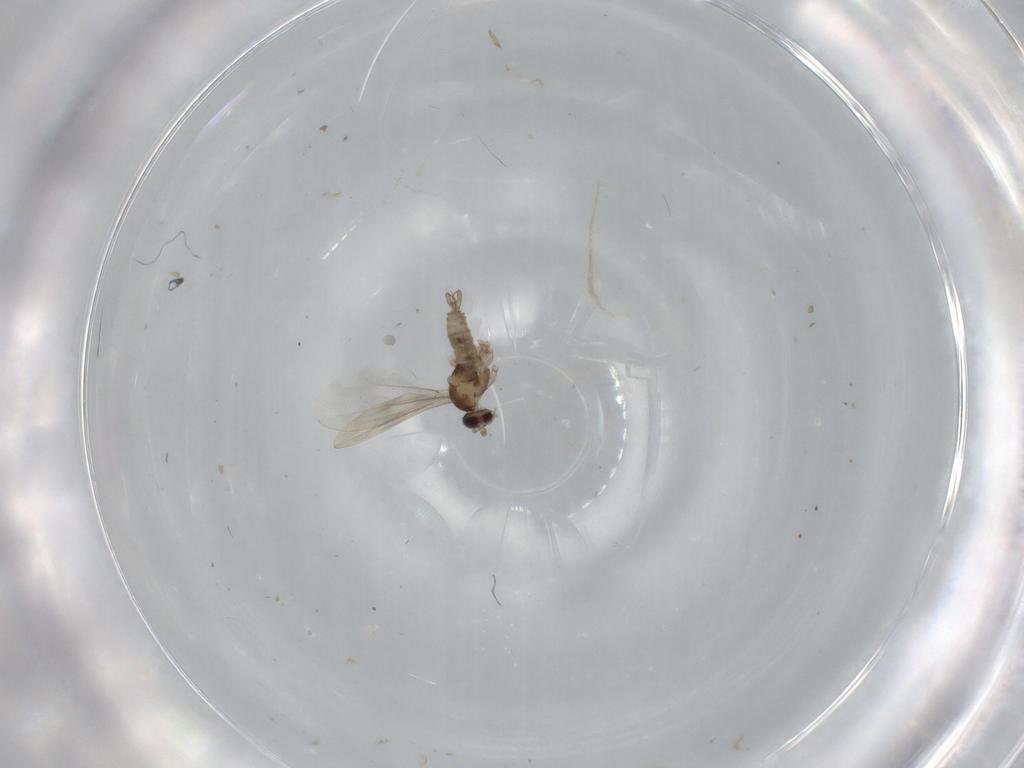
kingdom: Animalia
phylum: Arthropoda
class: Insecta
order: Diptera
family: Cecidomyiidae
